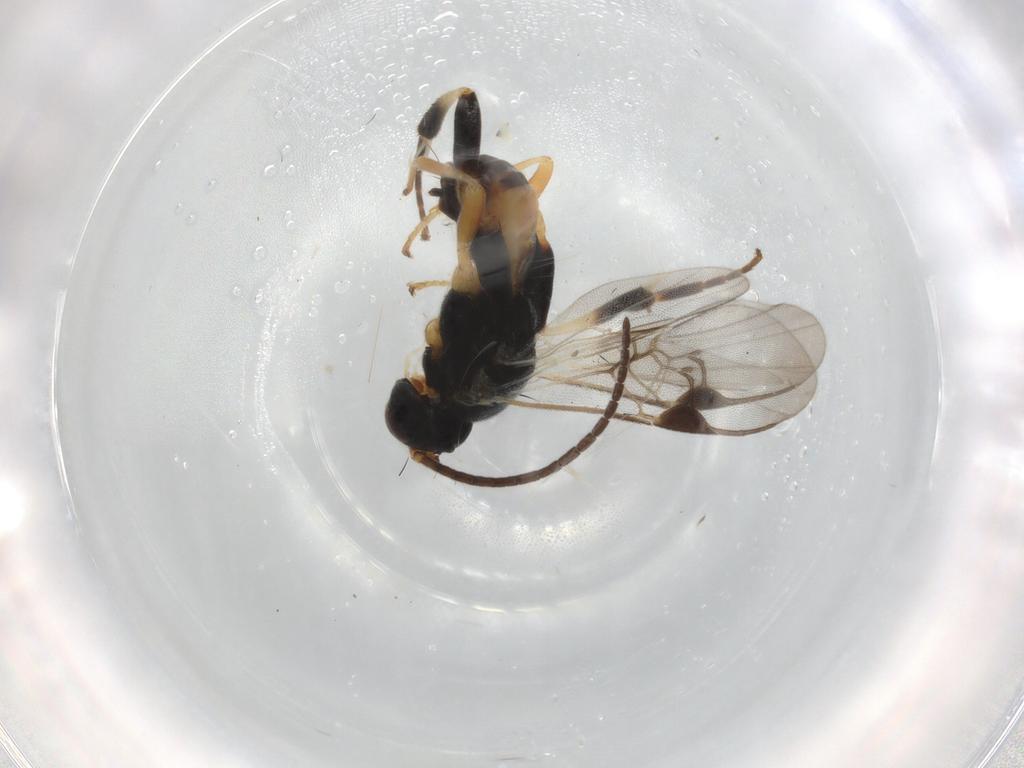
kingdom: Animalia
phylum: Arthropoda
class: Insecta
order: Hymenoptera
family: Braconidae
